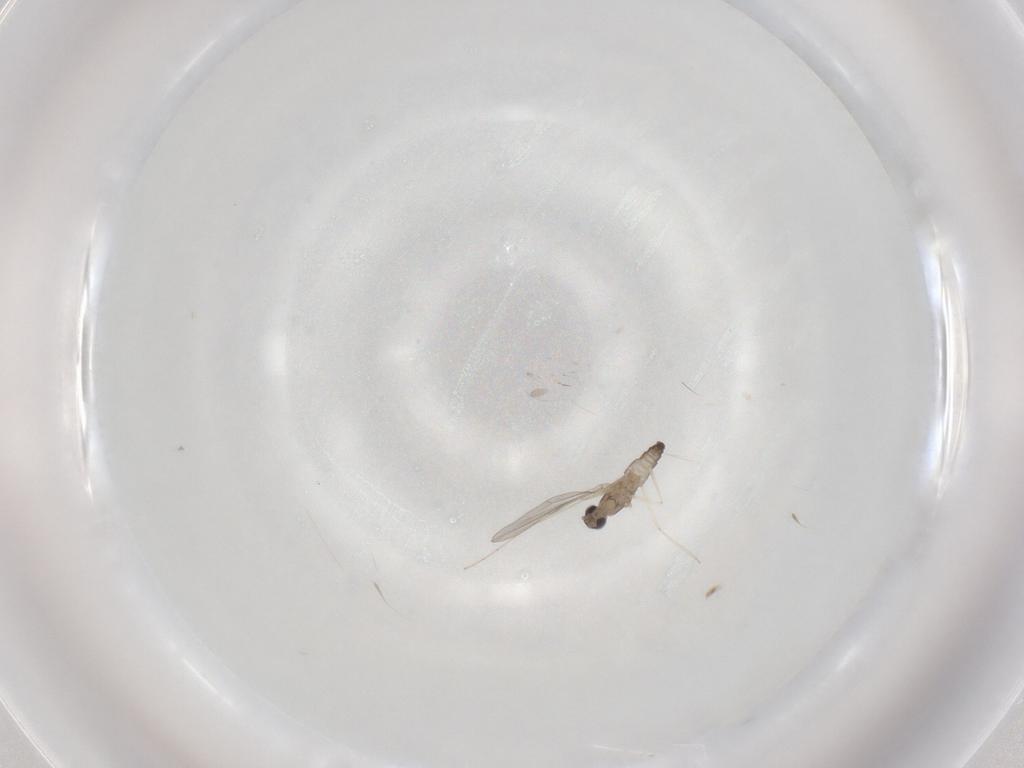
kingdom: Animalia
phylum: Arthropoda
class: Insecta
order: Diptera
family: Cecidomyiidae
